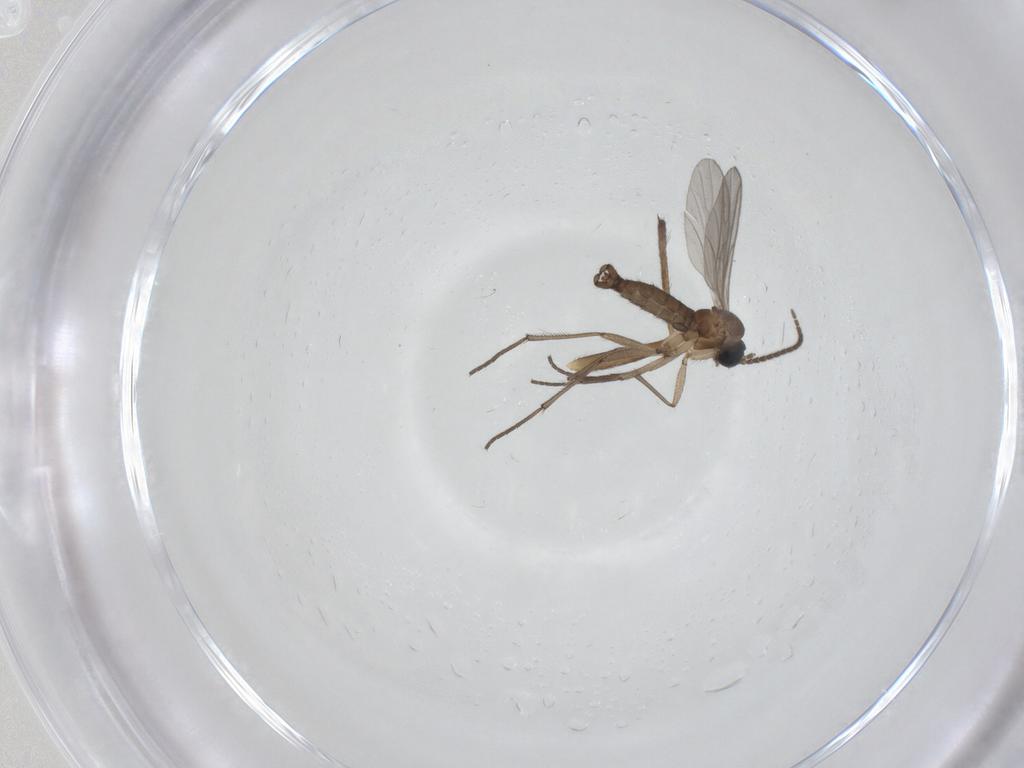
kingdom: Animalia
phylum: Arthropoda
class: Insecta
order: Diptera
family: Sciaridae
